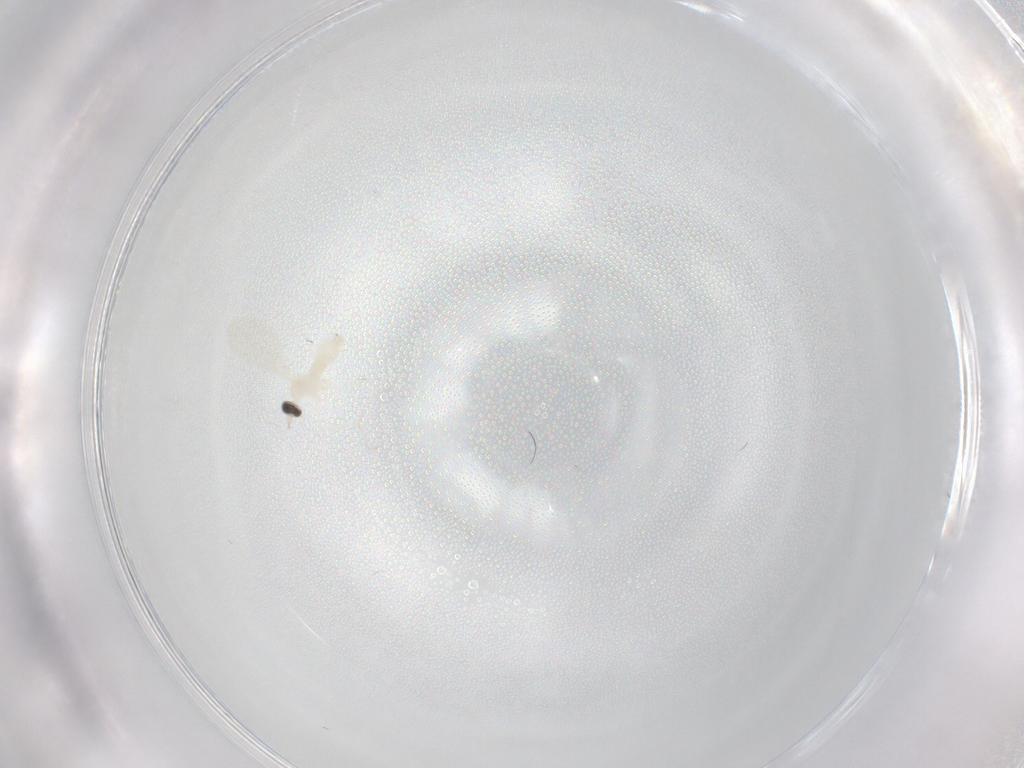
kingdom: Animalia
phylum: Arthropoda
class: Insecta
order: Diptera
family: Cecidomyiidae
